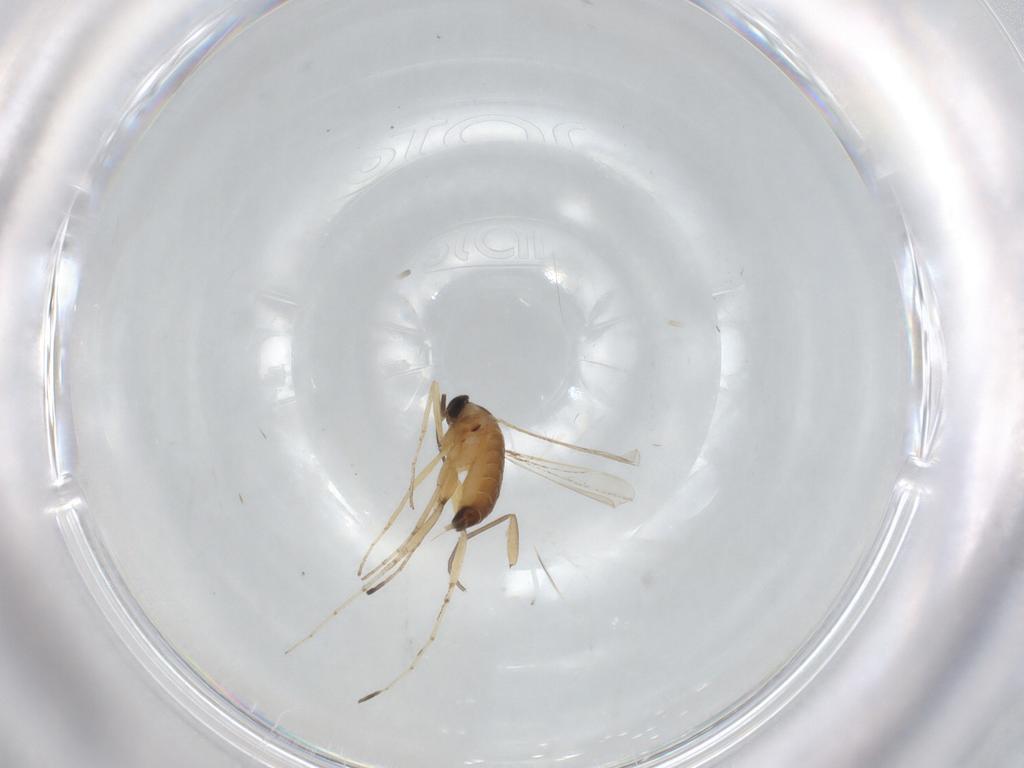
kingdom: Animalia
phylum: Arthropoda
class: Insecta
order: Diptera
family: Sciaridae
